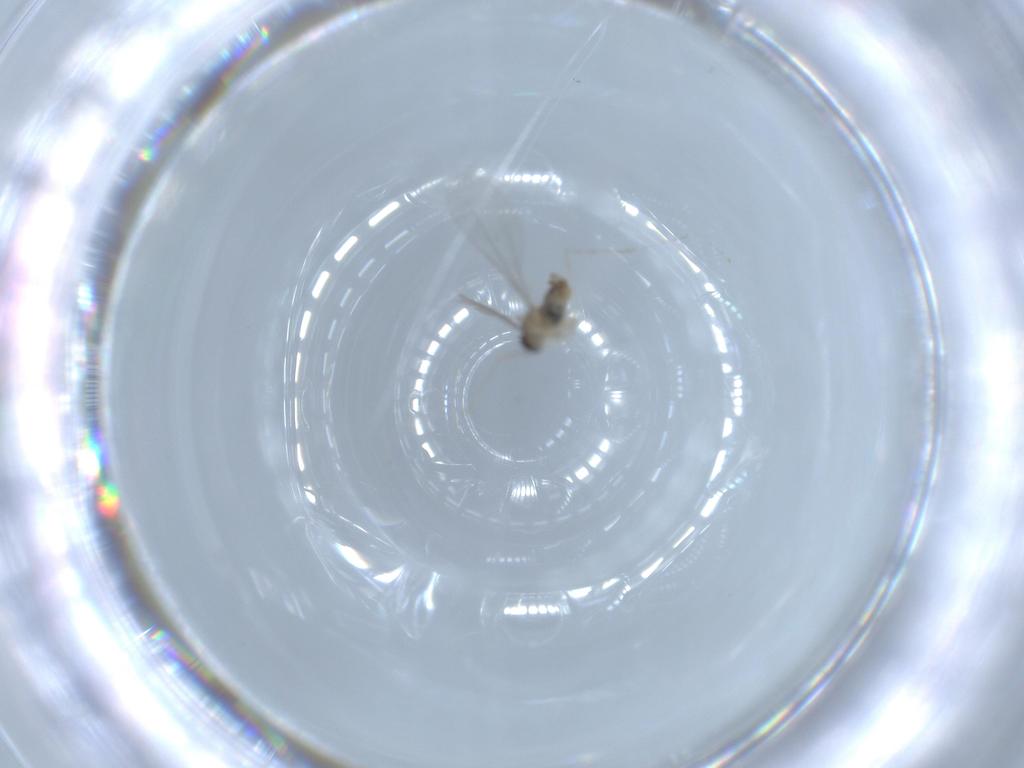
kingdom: Animalia
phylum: Arthropoda
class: Insecta
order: Diptera
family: Cecidomyiidae
